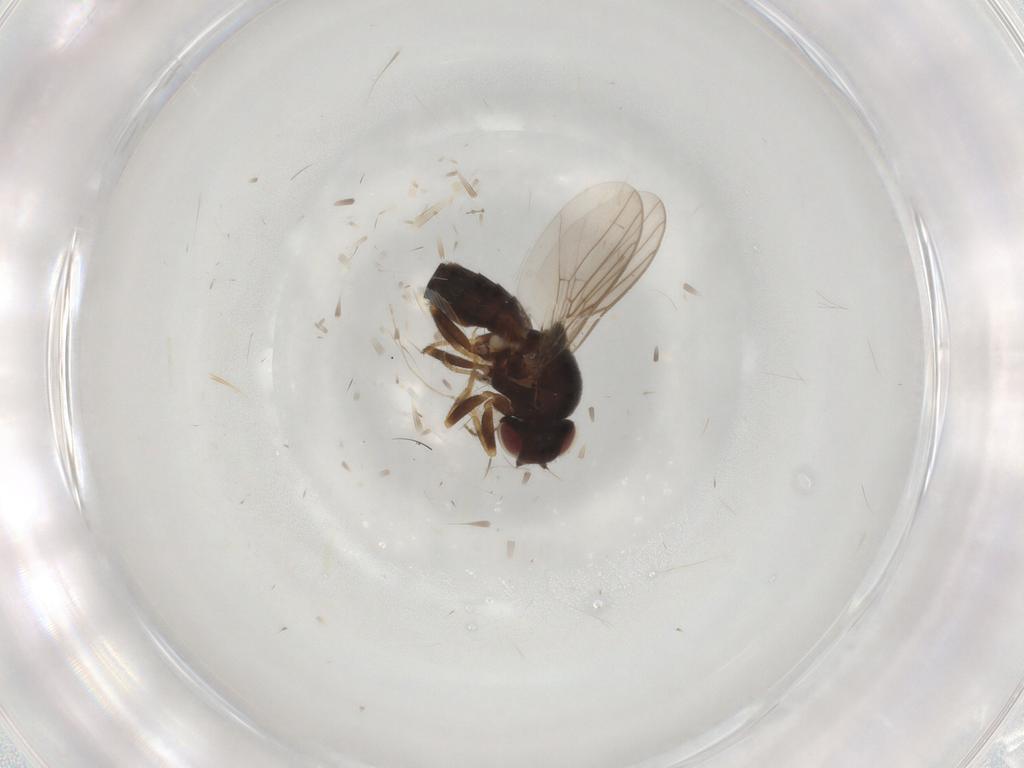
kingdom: Animalia
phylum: Arthropoda
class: Insecta
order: Diptera
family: Chloropidae
